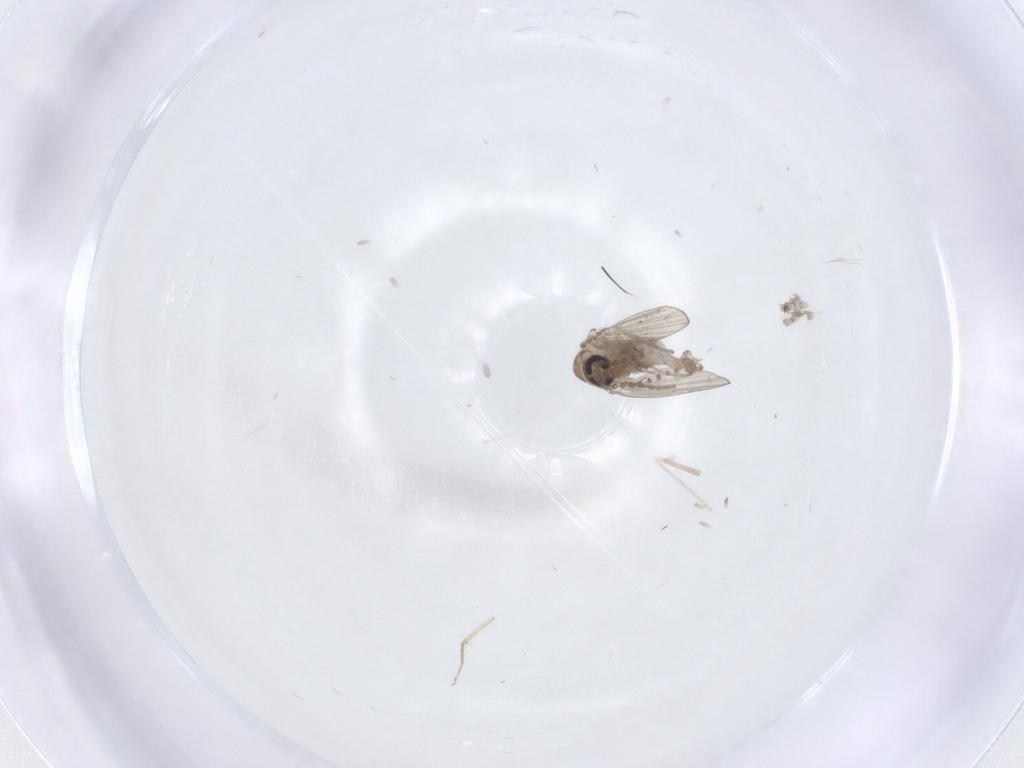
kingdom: Animalia
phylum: Arthropoda
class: Insecta
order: Diptera
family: Psychodidae
